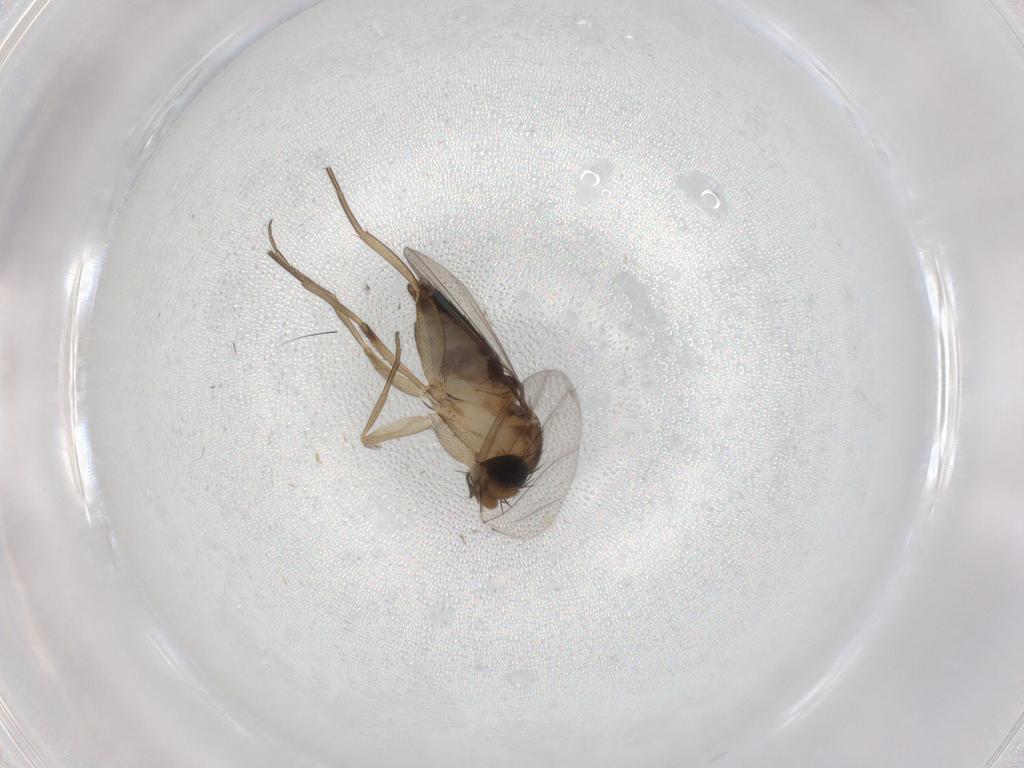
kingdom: Animalia
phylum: Arthropoda
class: Insecta
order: Diptera
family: Phoridae
